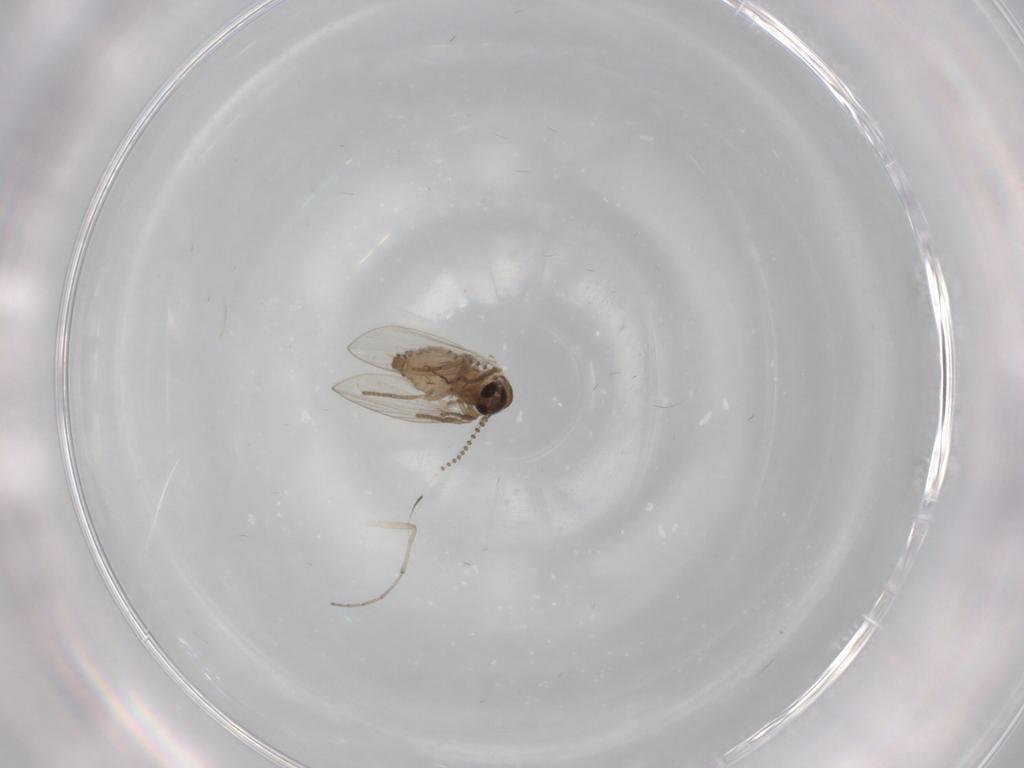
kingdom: Animalia
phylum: Arthropoda
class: Insecta
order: Diptera
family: Psychodidae
